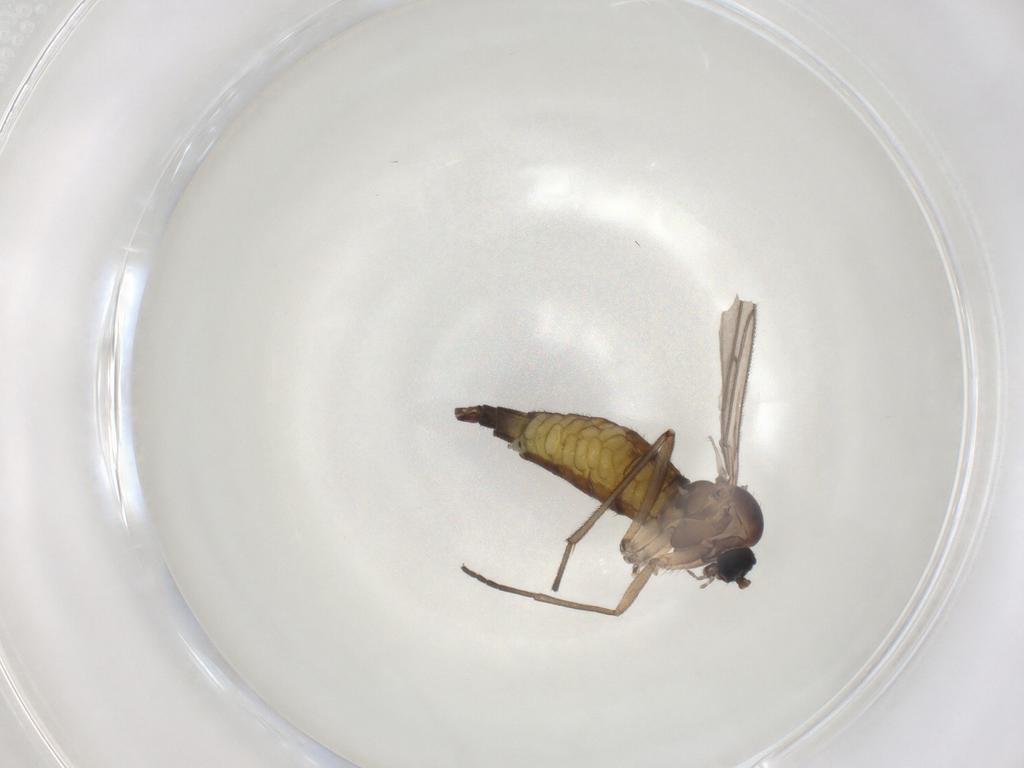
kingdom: Animalia
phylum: Arthropoda
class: Insecta
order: Diptera
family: Sciaridae
